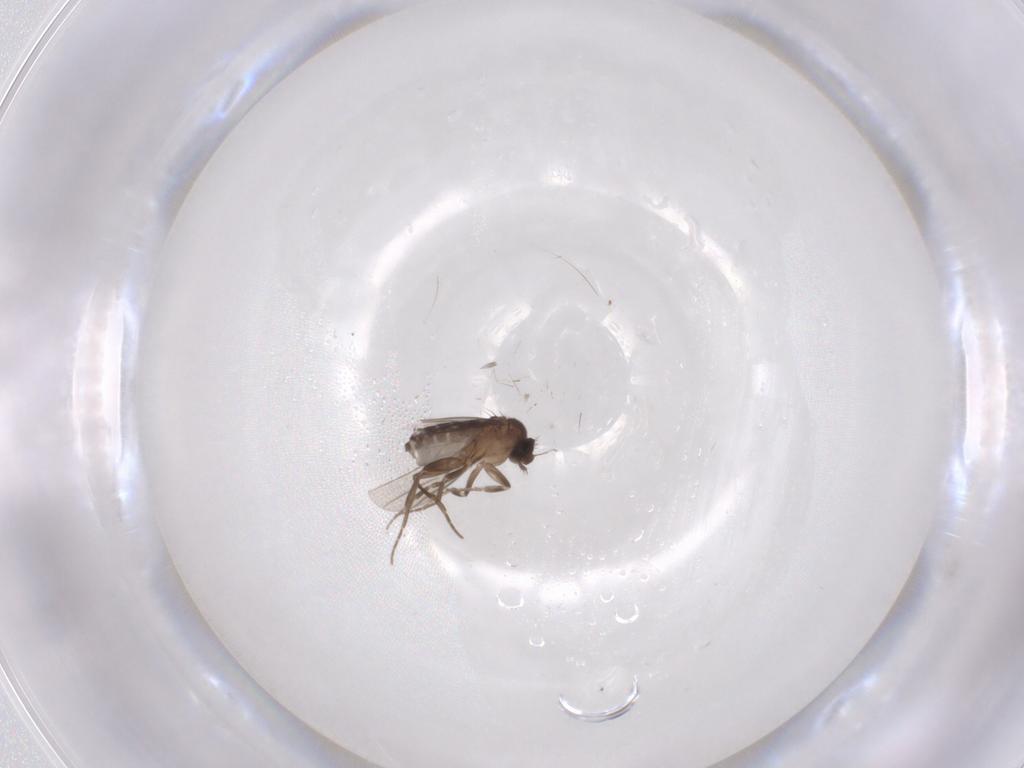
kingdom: Animalia
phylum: Arthropoda
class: Insecta
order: Diptera
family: Phoridae
